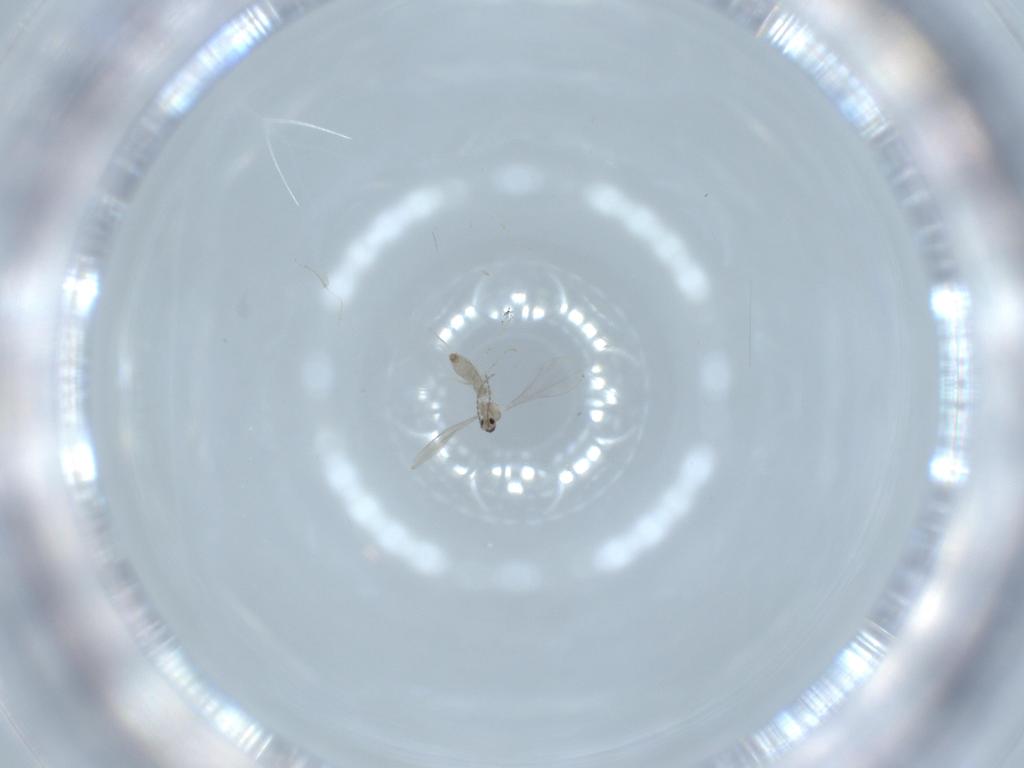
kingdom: Animalia
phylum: Arthropoda
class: Insecta
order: Diptera
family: Cecidomyiidae
